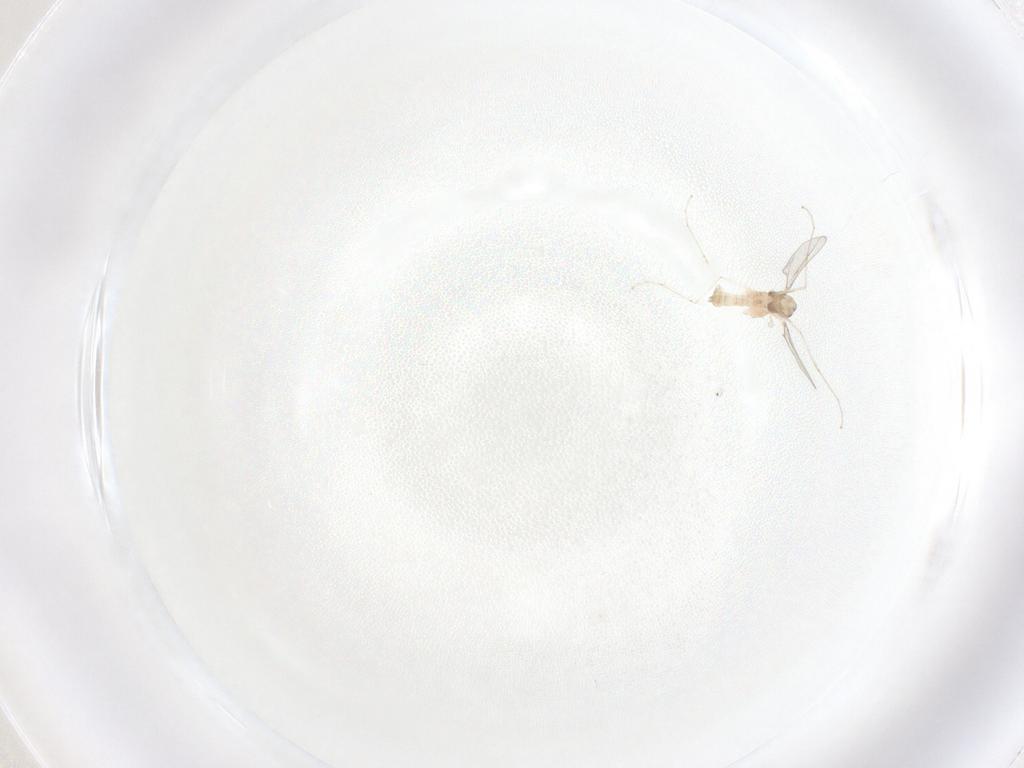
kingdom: Animalia
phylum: Arthropoda
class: Insecta
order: Diptera
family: Cecidomyiidae
